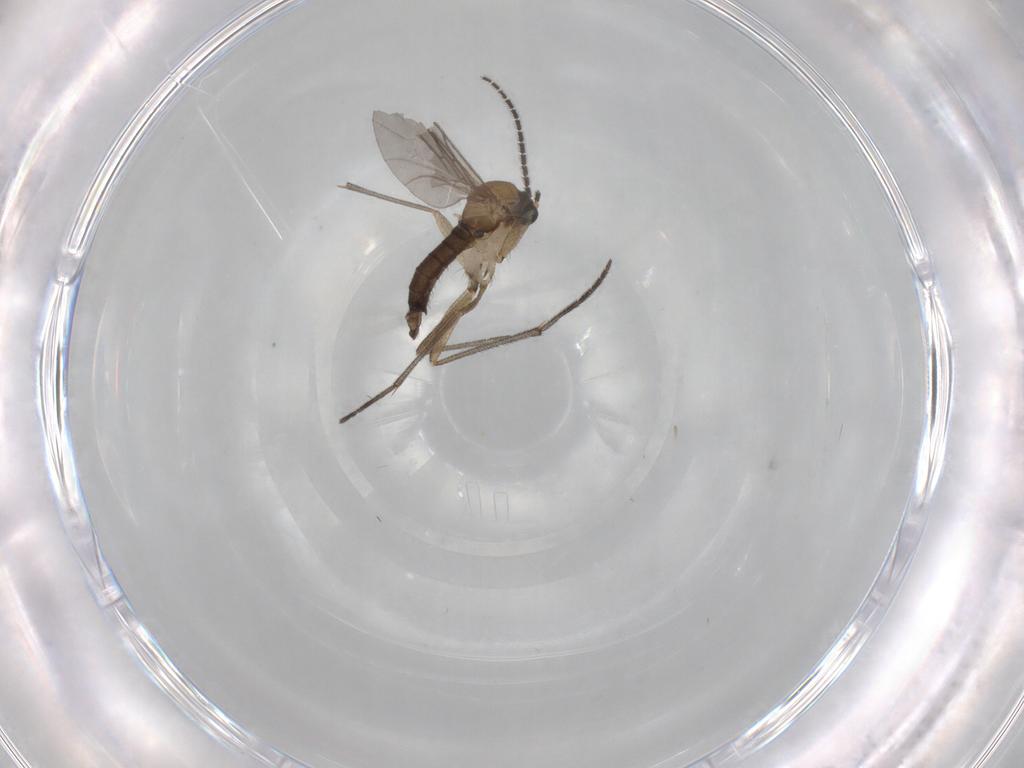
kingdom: Animalia
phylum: Arthropoda
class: Insecta
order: Diptera
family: Sciaridae
